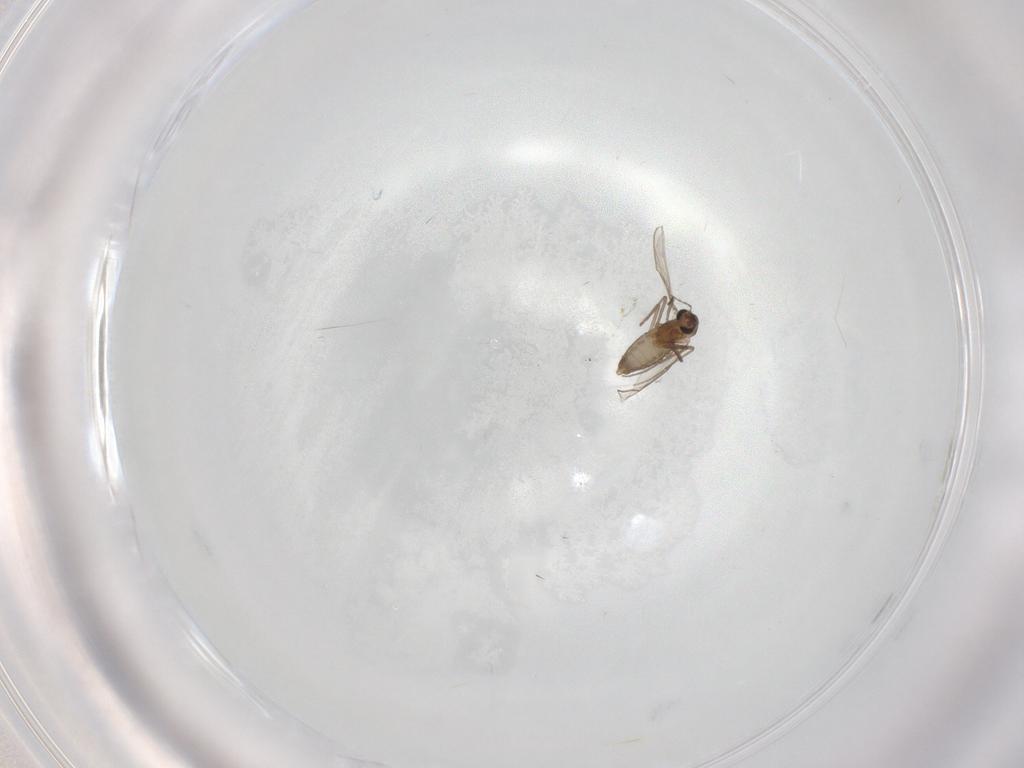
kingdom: Animalia
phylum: Arthropoda
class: Insecta
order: Diptera
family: Chironomidae
